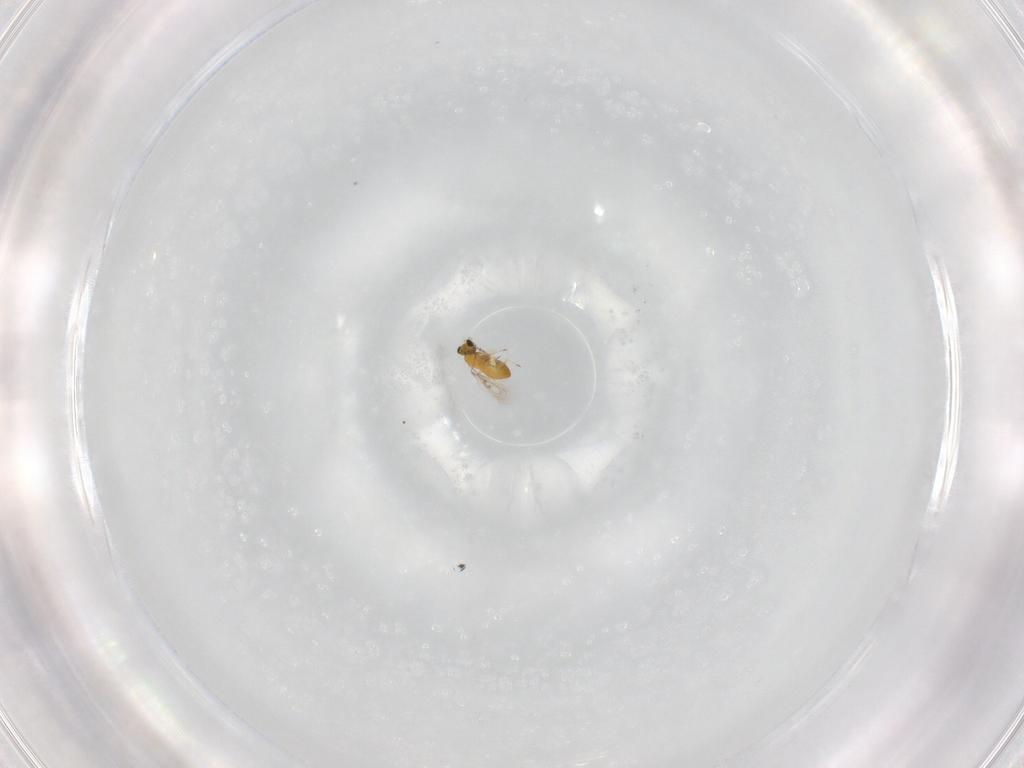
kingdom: Animalia
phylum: Arthropoda
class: Insecta
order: Hymenoptera
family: Trichogrammatidae
